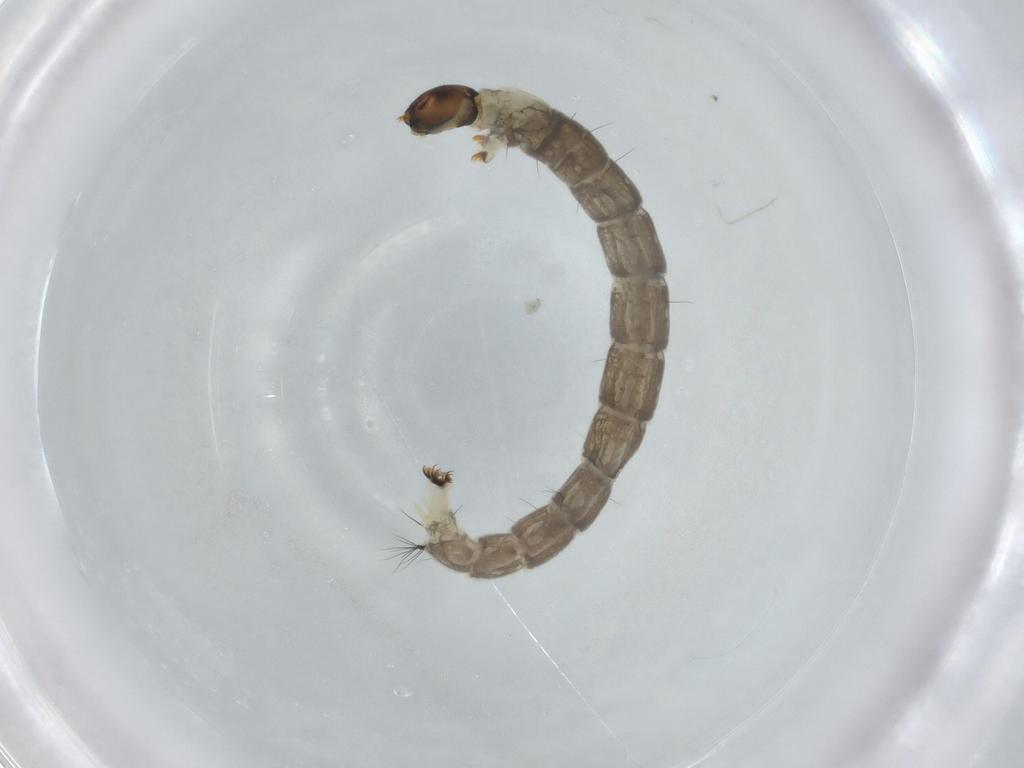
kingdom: Animalia
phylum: Arthropoda
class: Insecta
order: Diptera
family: Chironomidae
